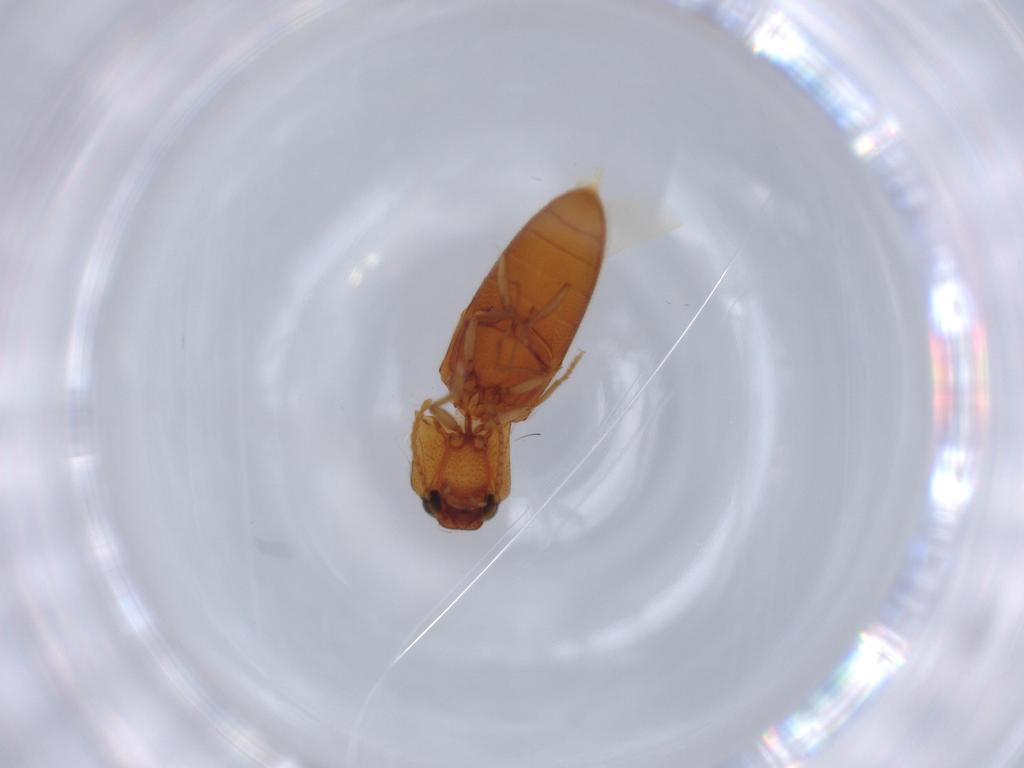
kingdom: Animalia
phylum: Arthropoda
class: Insecta
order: Coleoptera
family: Elateridae
